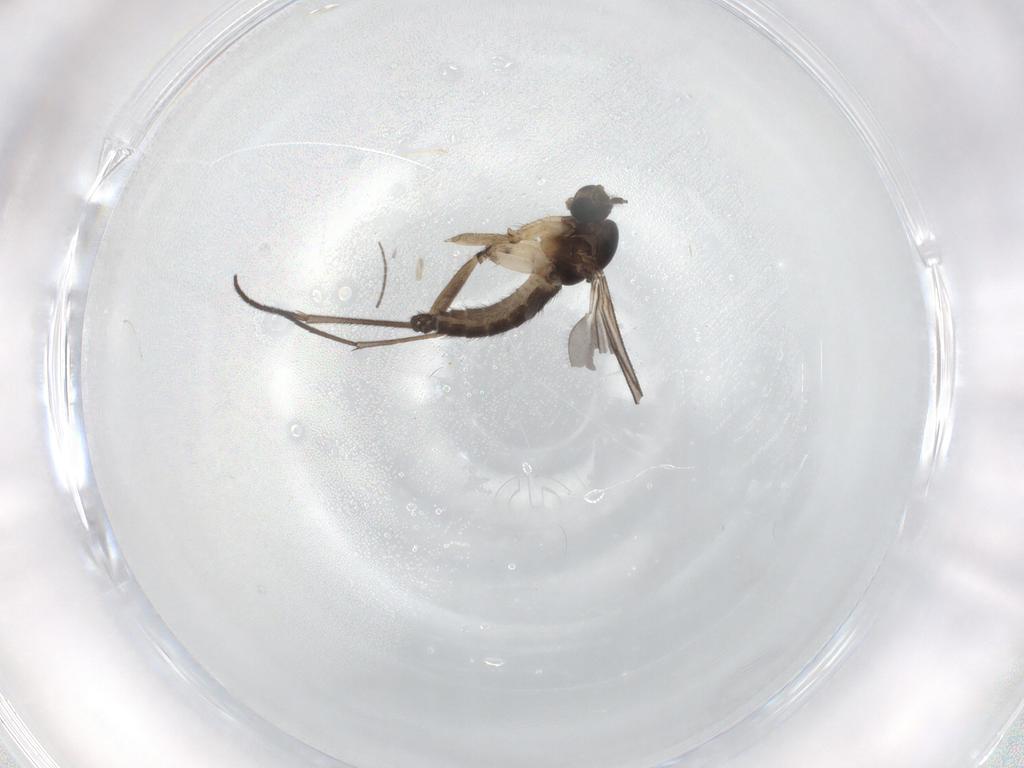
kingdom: Animalia
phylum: Arthropoda
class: Insecta
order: Diptera
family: Sciaridae
